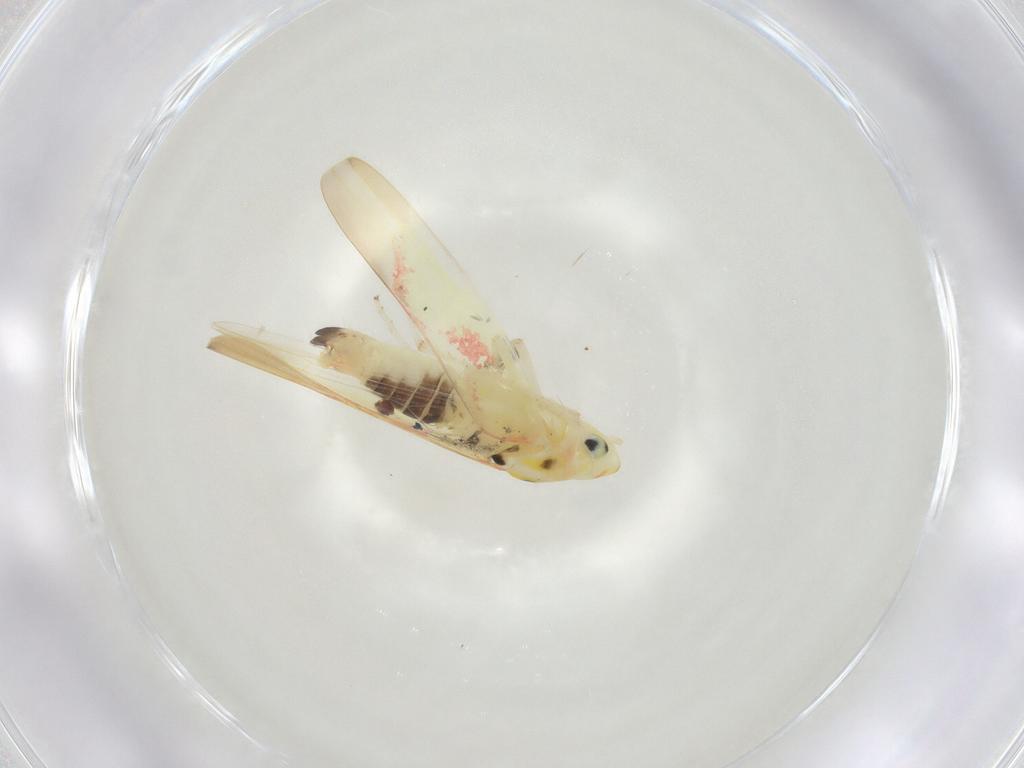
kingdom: Animalia
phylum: Arthropoda
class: Insecta
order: Hemiptera
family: Cicadellidae
